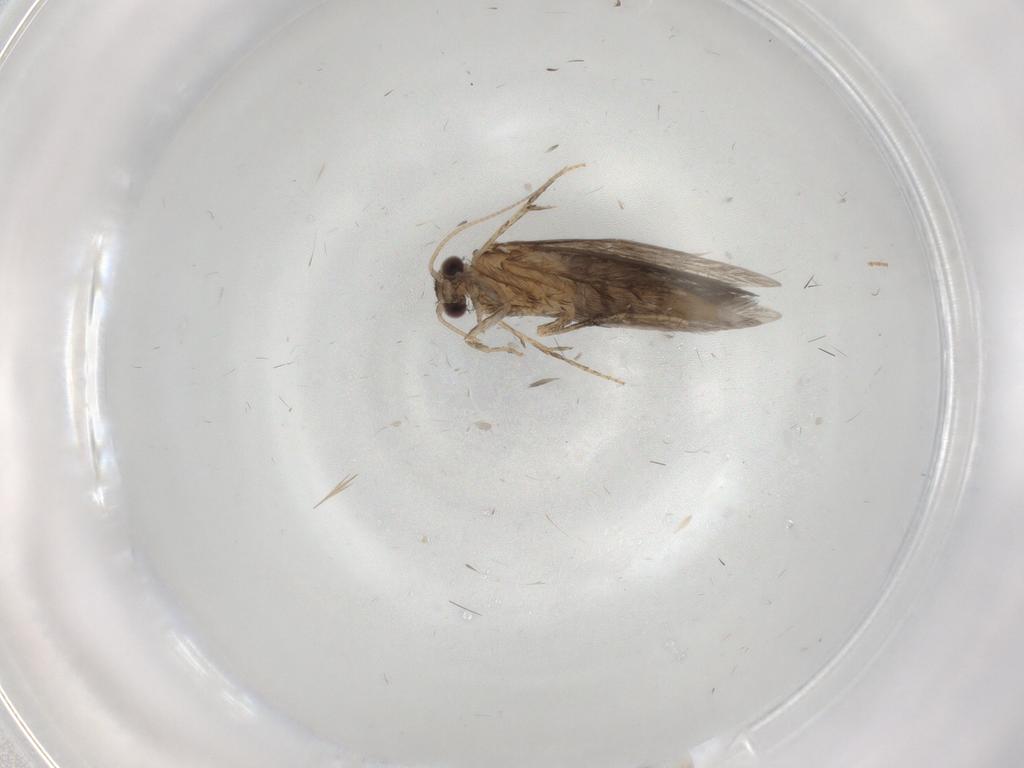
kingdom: Animalia
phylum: Arthropoda
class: Insecta
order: Trichoptera
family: Hydroptilidae
